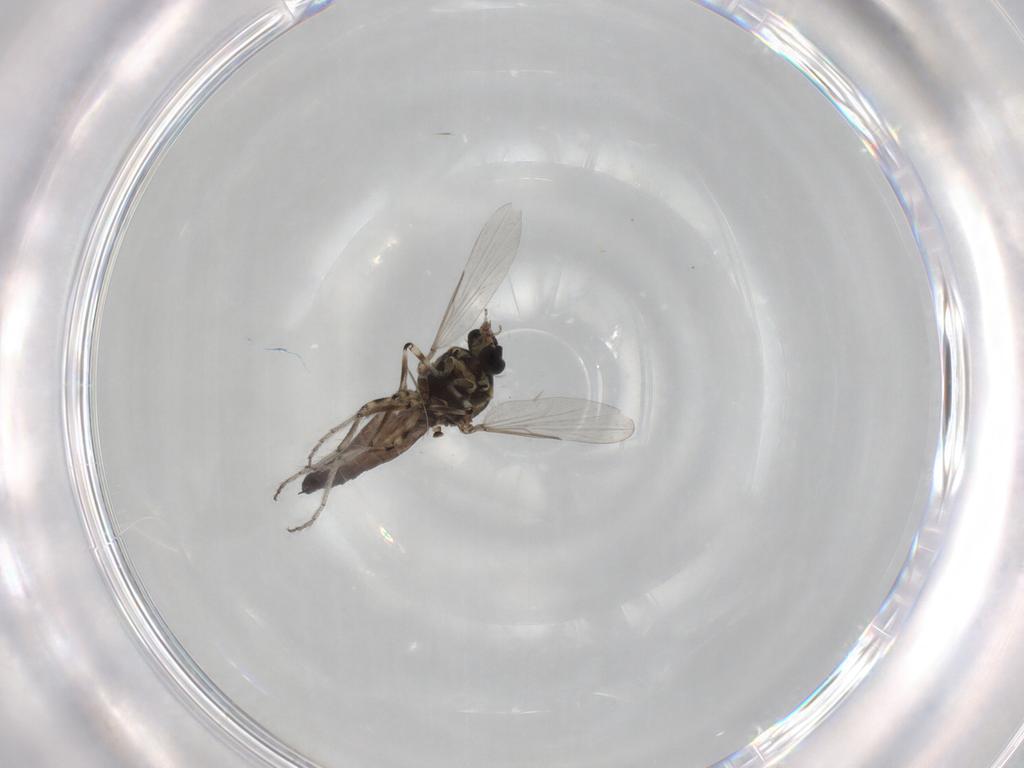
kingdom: Animalia
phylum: Arthropoda
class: Insecta
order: Diptera
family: Ceratopogonidae
